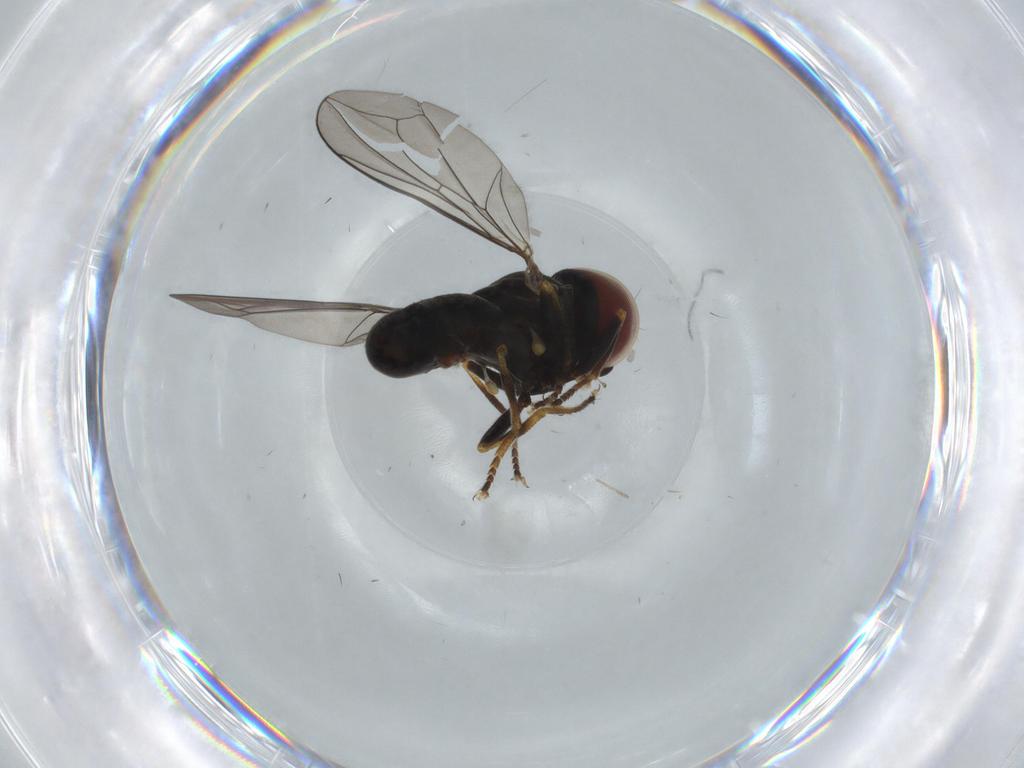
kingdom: Animalia
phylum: Arthropoda
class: Insecta
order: Diptera
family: Pipunculidae
